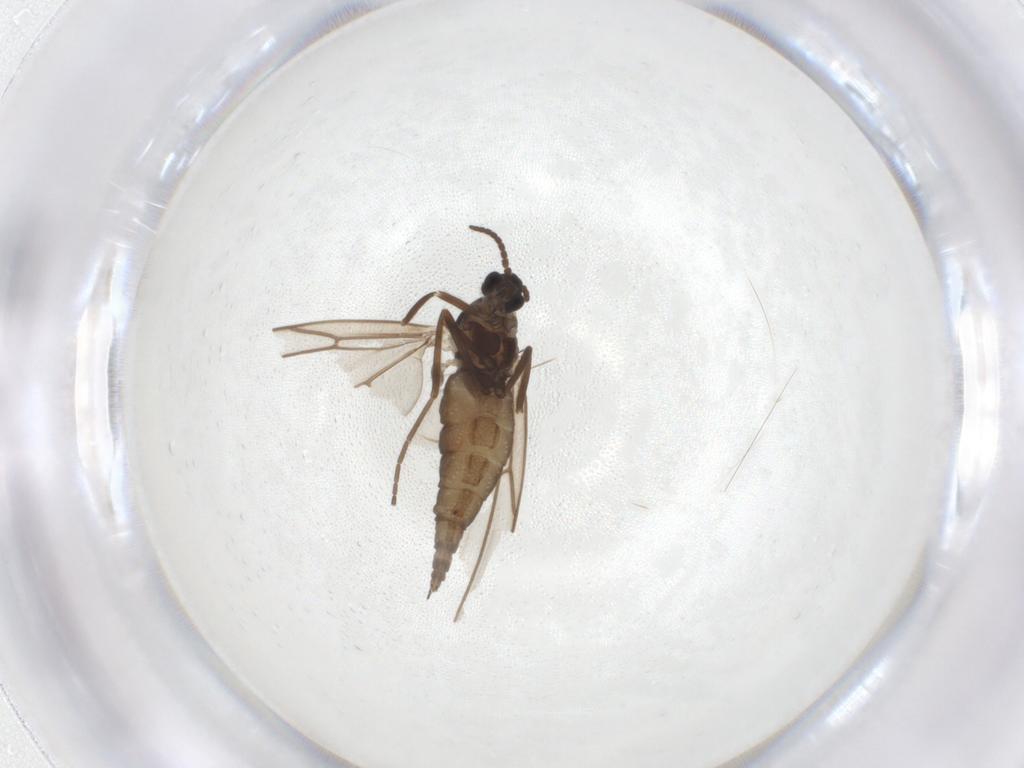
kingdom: Animalia
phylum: Arthropoda
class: Insecta
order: Diptera
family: Cecidomyiidae
